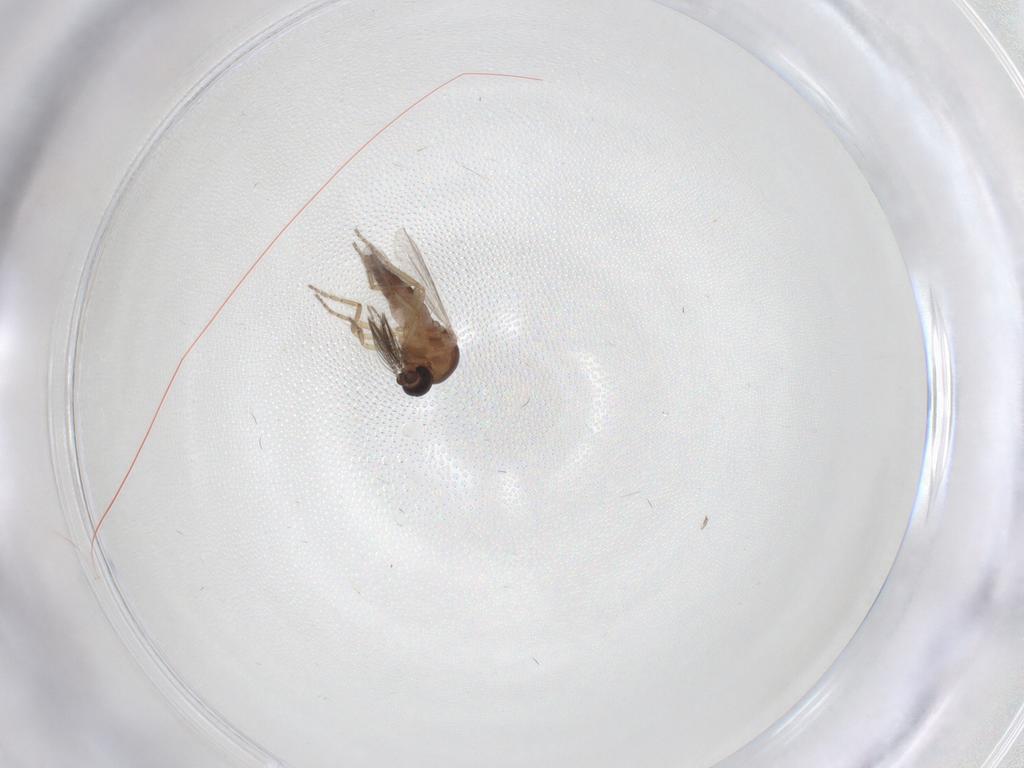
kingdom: Animalia
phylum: Arthropoda
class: Insecta
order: Diptera
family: Ceratopogonidae
